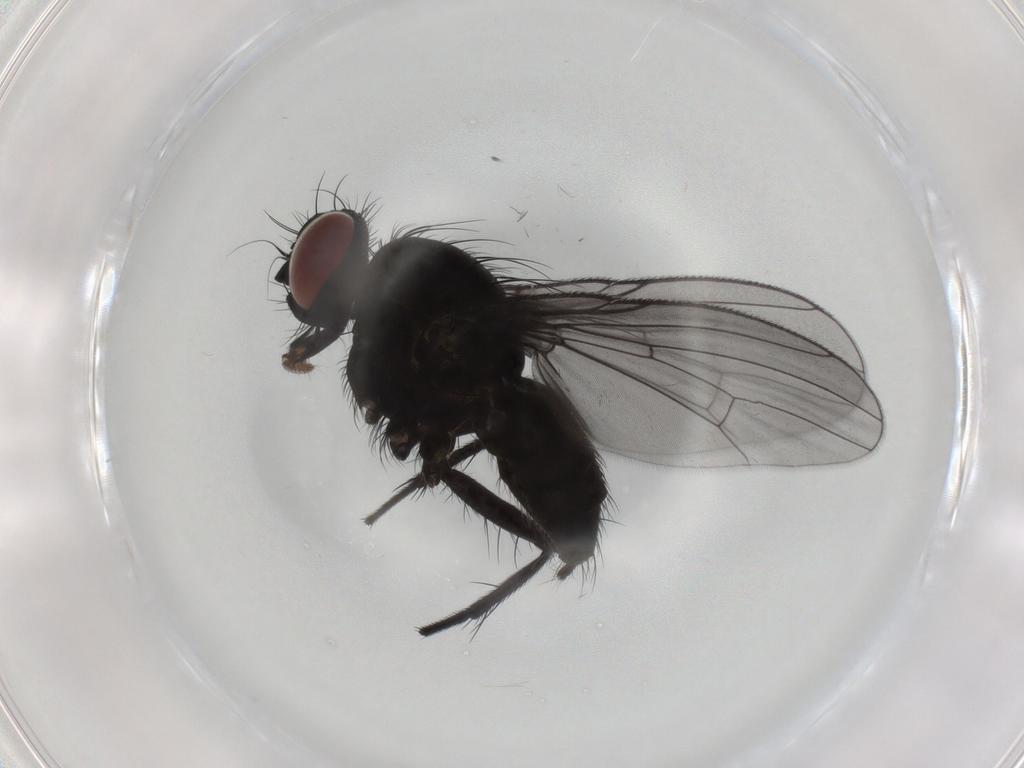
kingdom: Animalia
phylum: Arthropoda
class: Insecta
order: Diptera
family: Muscidae
